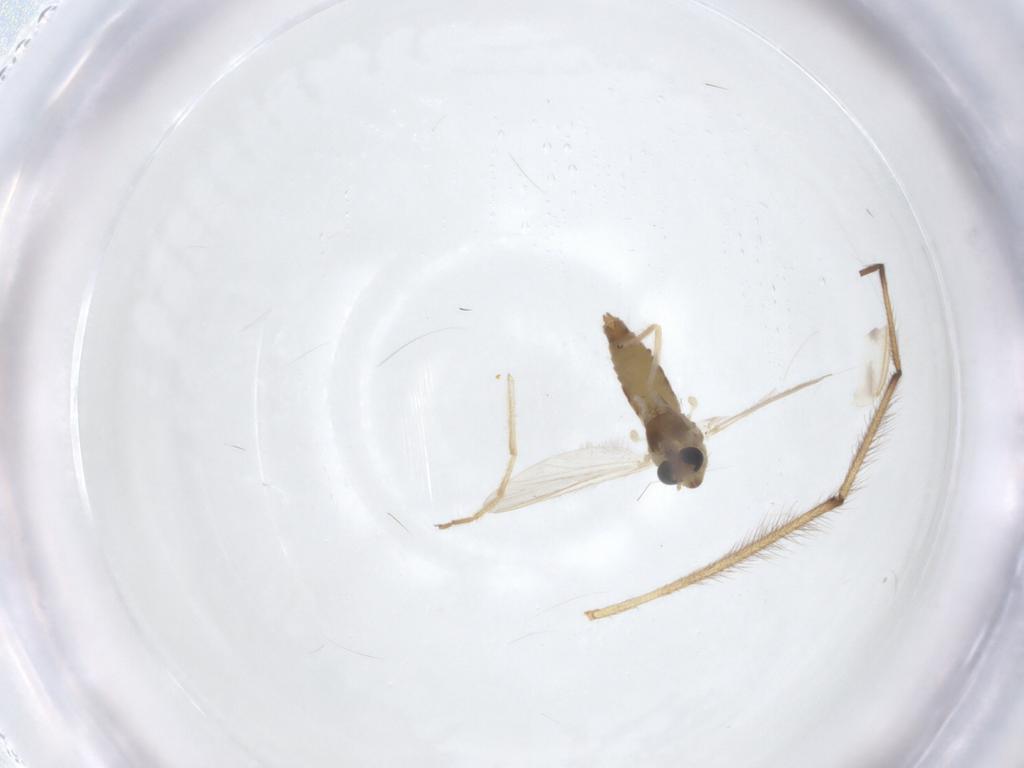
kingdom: Animalia
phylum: Arthropoda
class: Insecta
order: Diptera
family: Chironomidae
